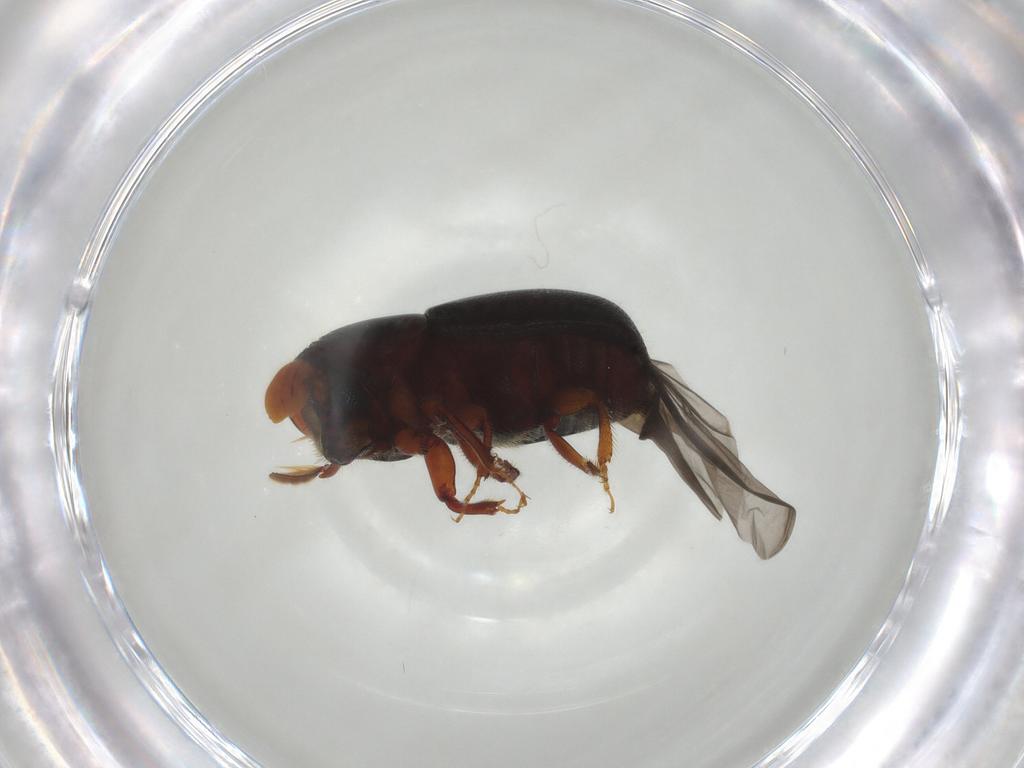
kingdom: Animalia
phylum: Arthropoda
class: Insecta
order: Coleoptera
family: Curculionidae
